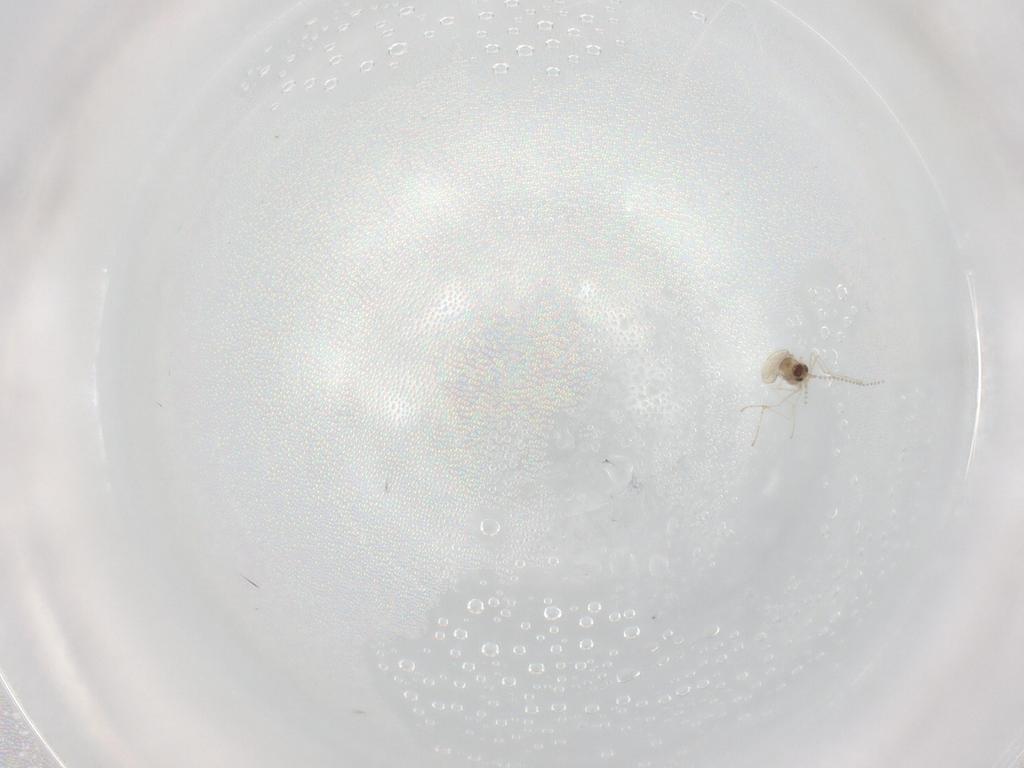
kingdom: Animalia
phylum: Arthropoda
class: Insecta
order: Diptera
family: Cecidomyiidae
